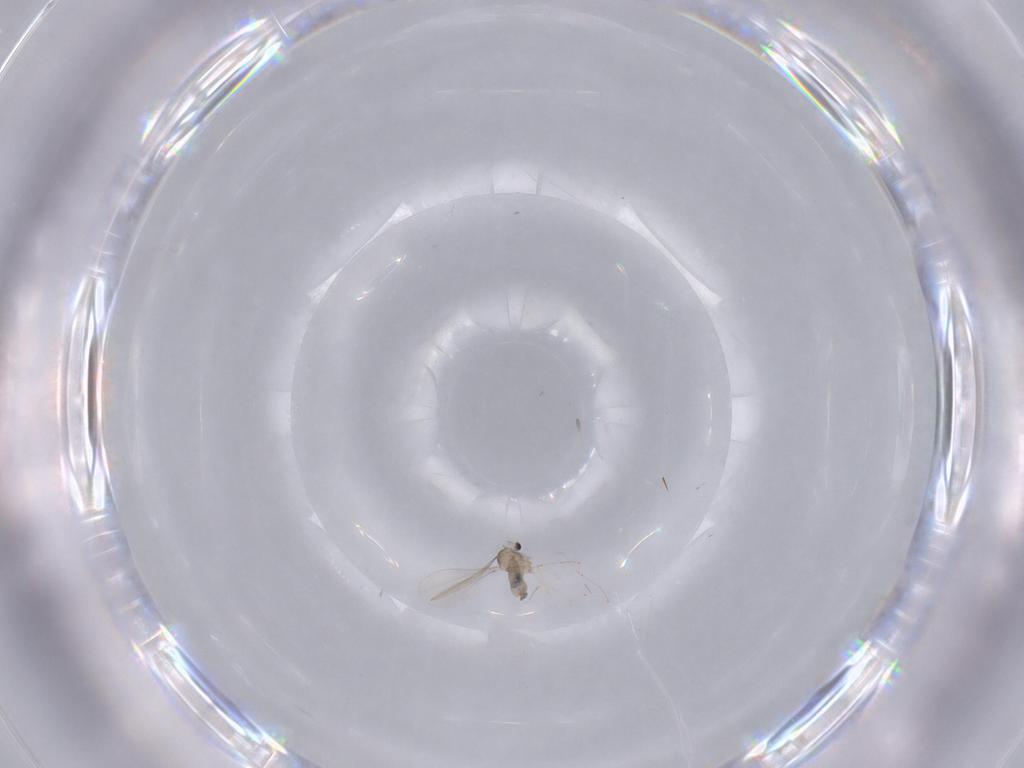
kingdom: Animalia
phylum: Arthropoda
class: Insecta
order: Diptera
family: Cecidomyiidae
